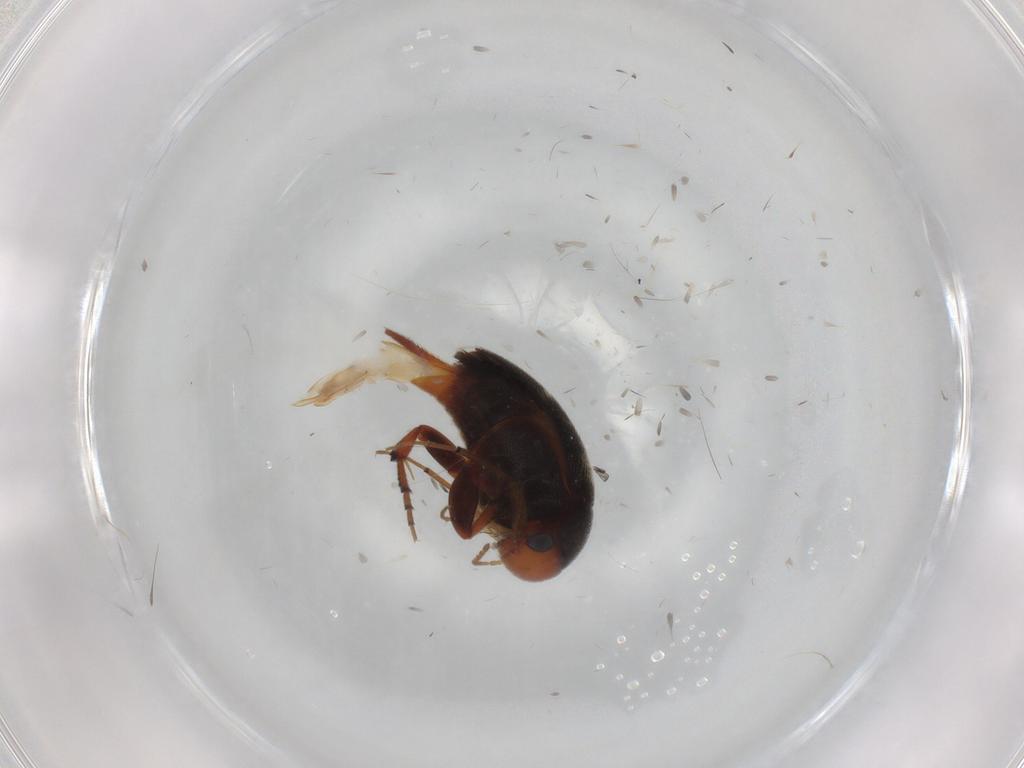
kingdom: Animalia
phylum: Arthropoda
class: Insecta
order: Coleoptera
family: Mordellidae
